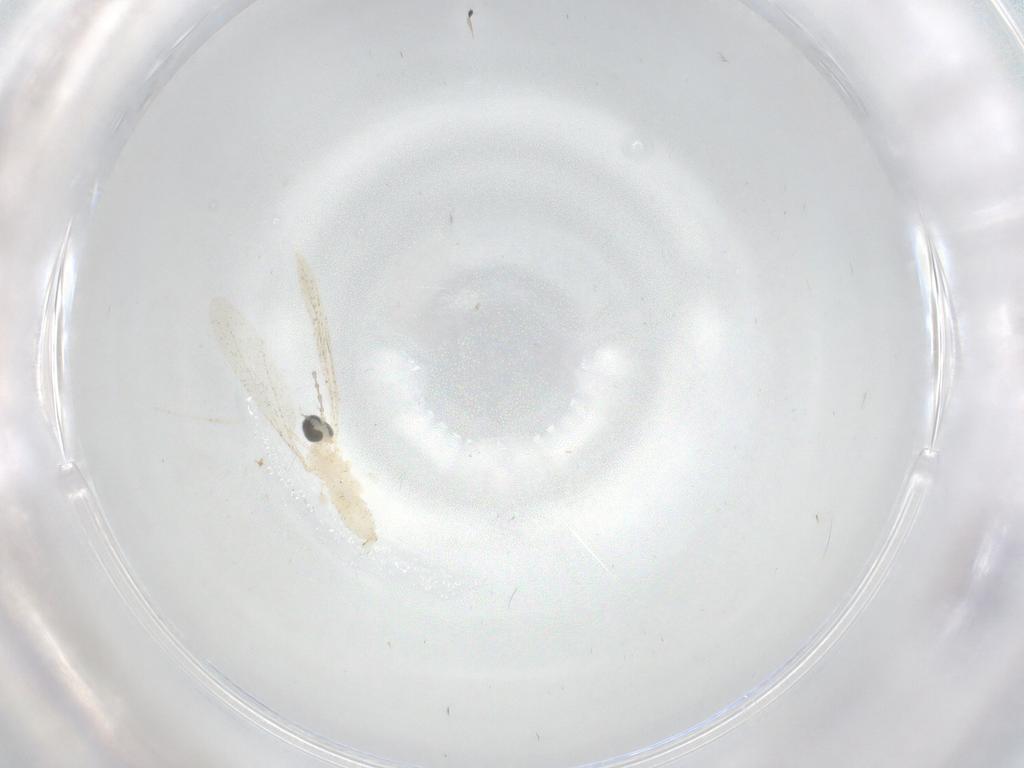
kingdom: Animalia
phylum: Arthropoda
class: Insecta
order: Diptera
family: Cecidomyiidae
